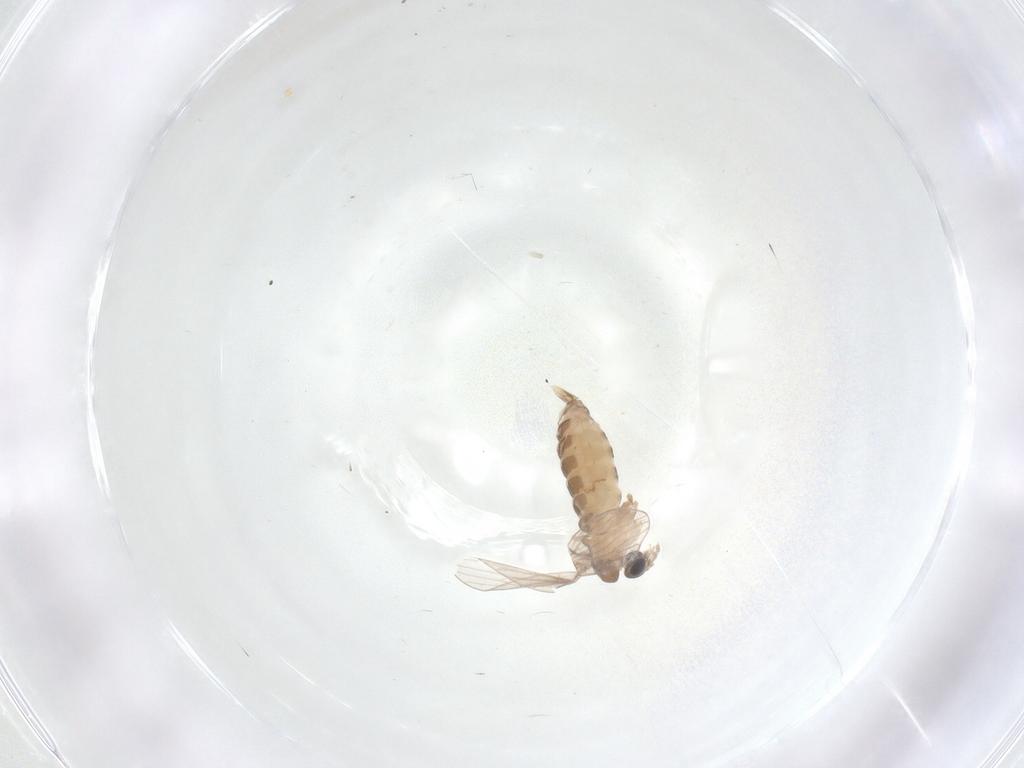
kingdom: Animalia
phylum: Arthropoda
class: Insecta
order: Diptera
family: Psychodidae
